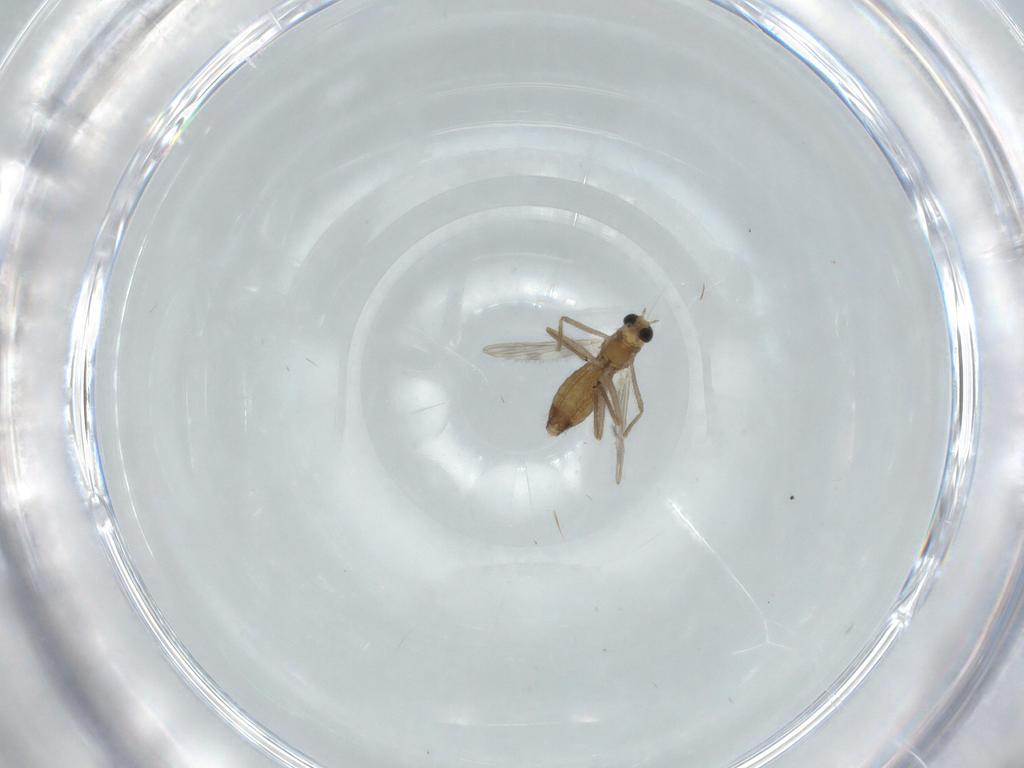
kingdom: Animalia
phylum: Arthropoda
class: Insecta
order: Diptera
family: Chironomidae
